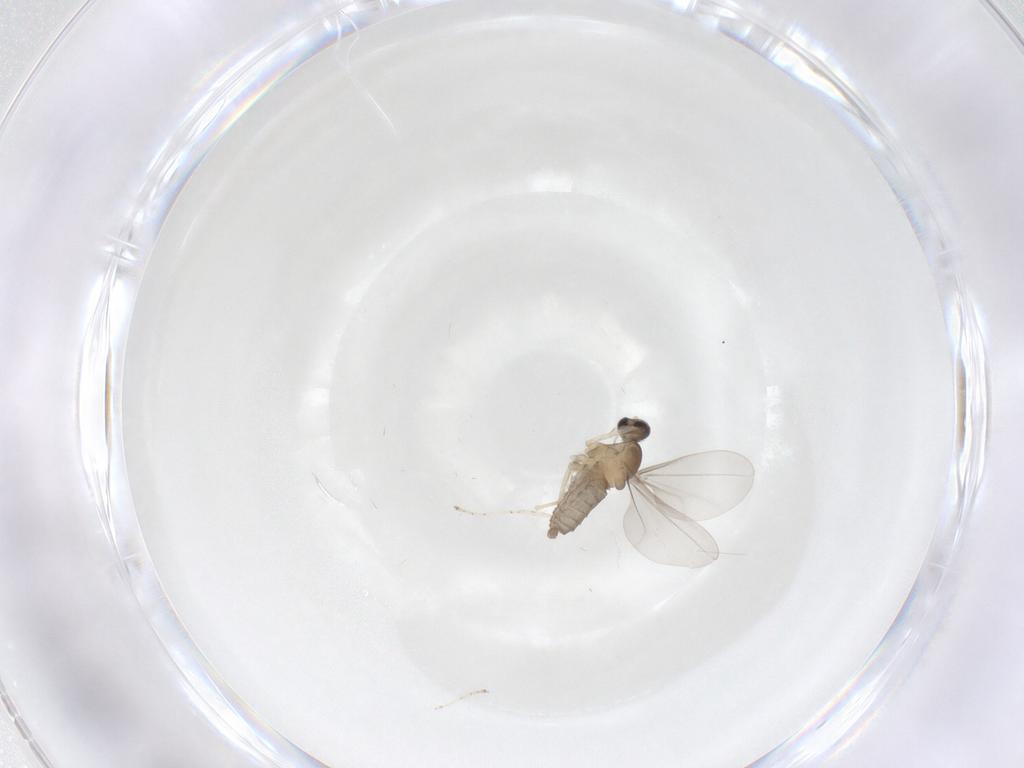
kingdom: Animalia
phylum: Arthropoda
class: Insecta
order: Diptera
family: Cecidomyiidae
